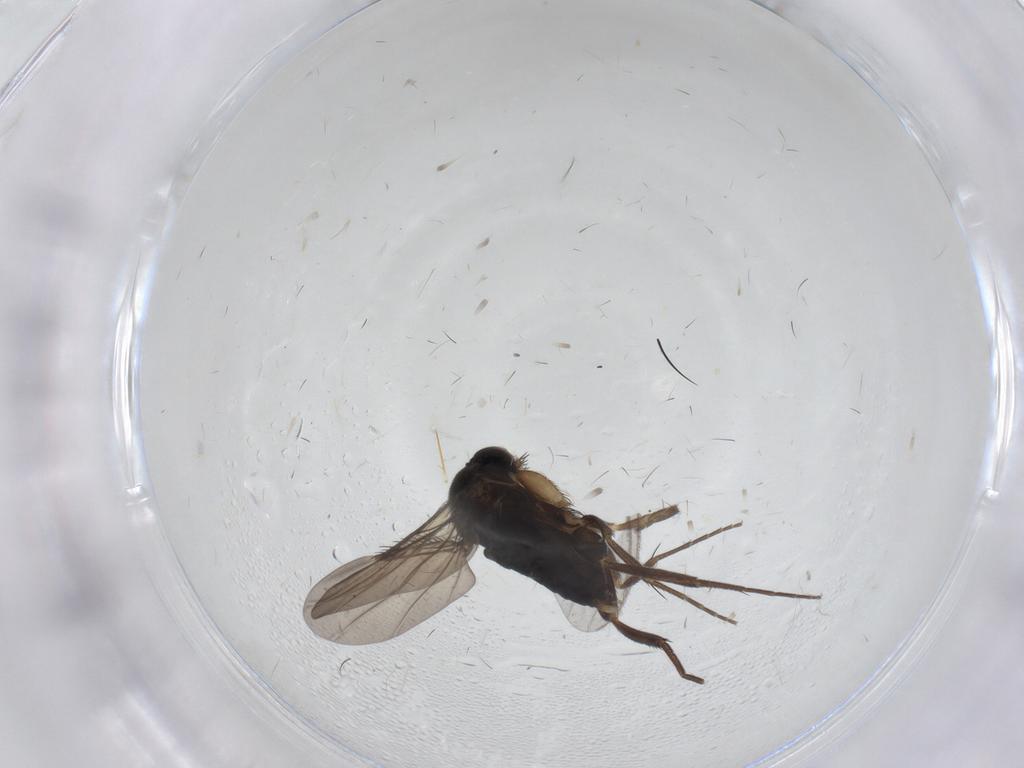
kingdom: Animalia
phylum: Arthropoda
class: Insecta
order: Diptera
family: Phoridae
